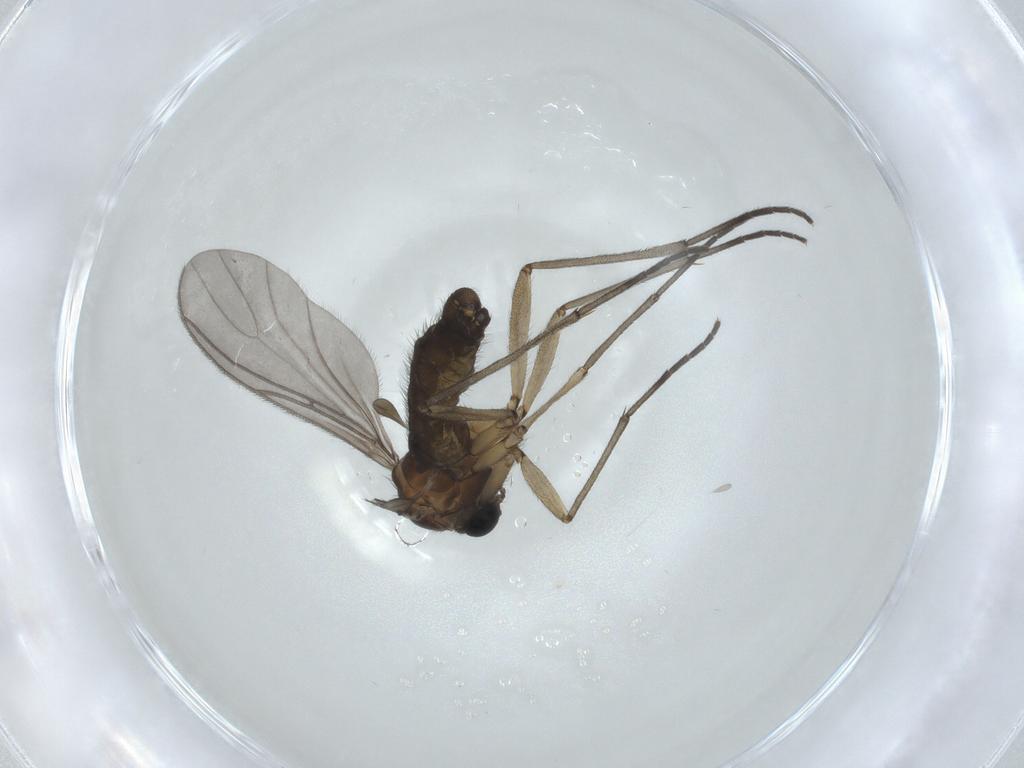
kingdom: Animalia
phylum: Arthropoda
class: Insecta
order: Diptera
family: Sciaridae
